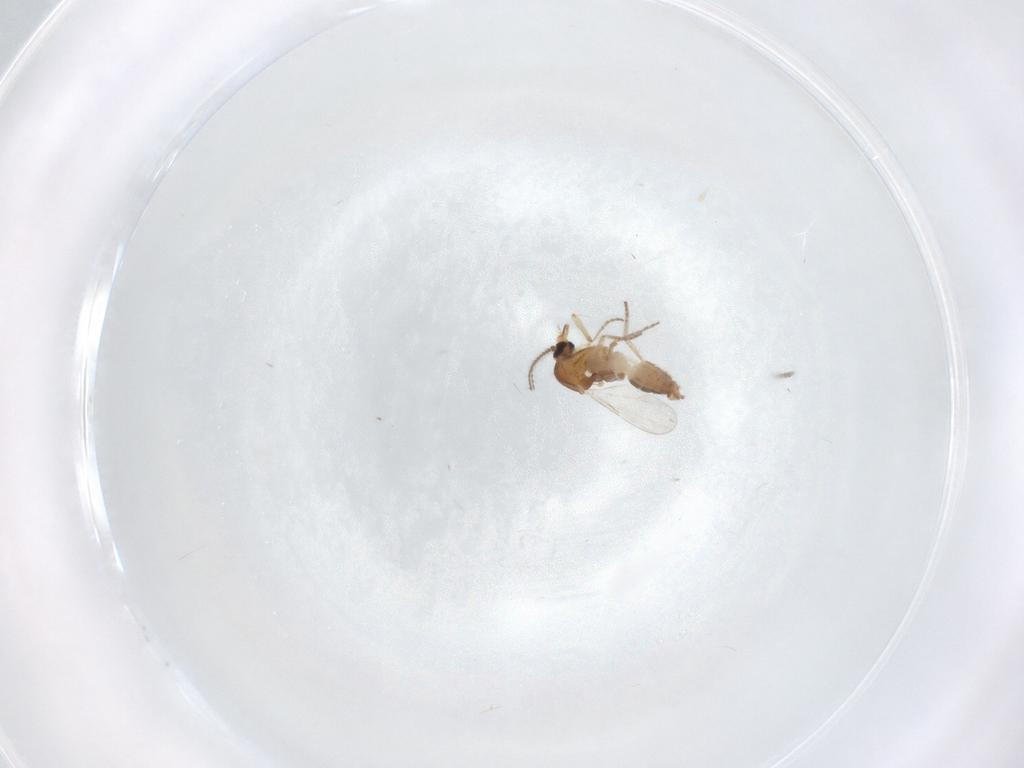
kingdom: Animalia
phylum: Arthropoda
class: Insecta
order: Diptera
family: Ceratopogonidae
